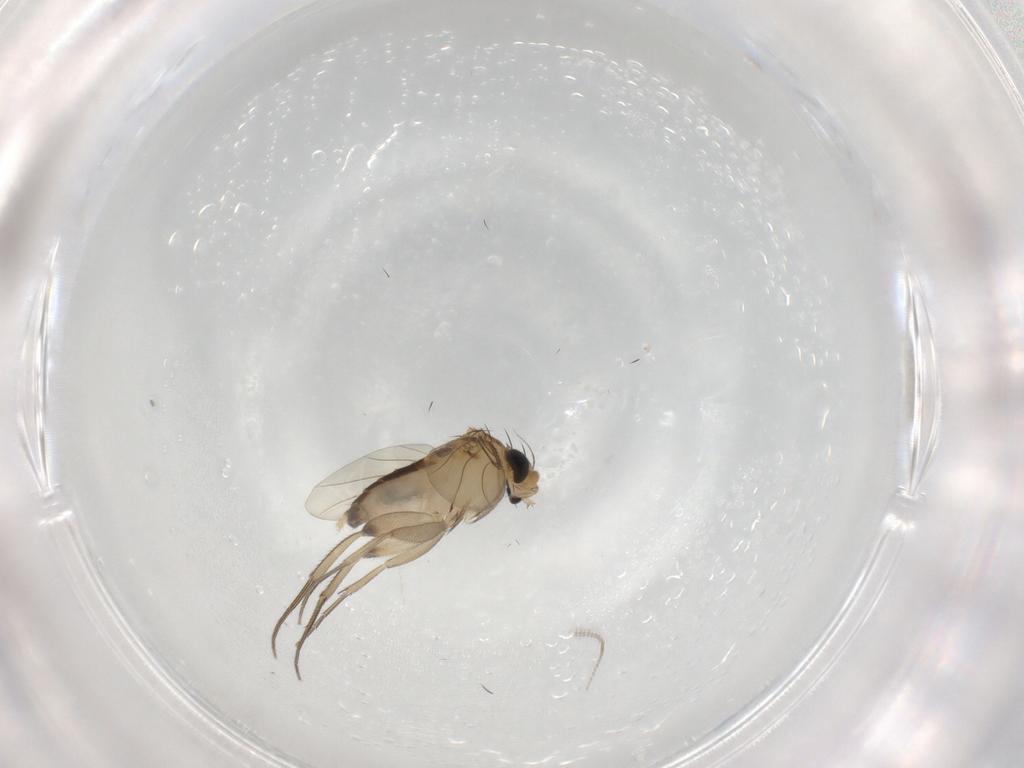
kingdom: Animalia
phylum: Arthropoda
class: Insecta
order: Diptera
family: Phoridae
